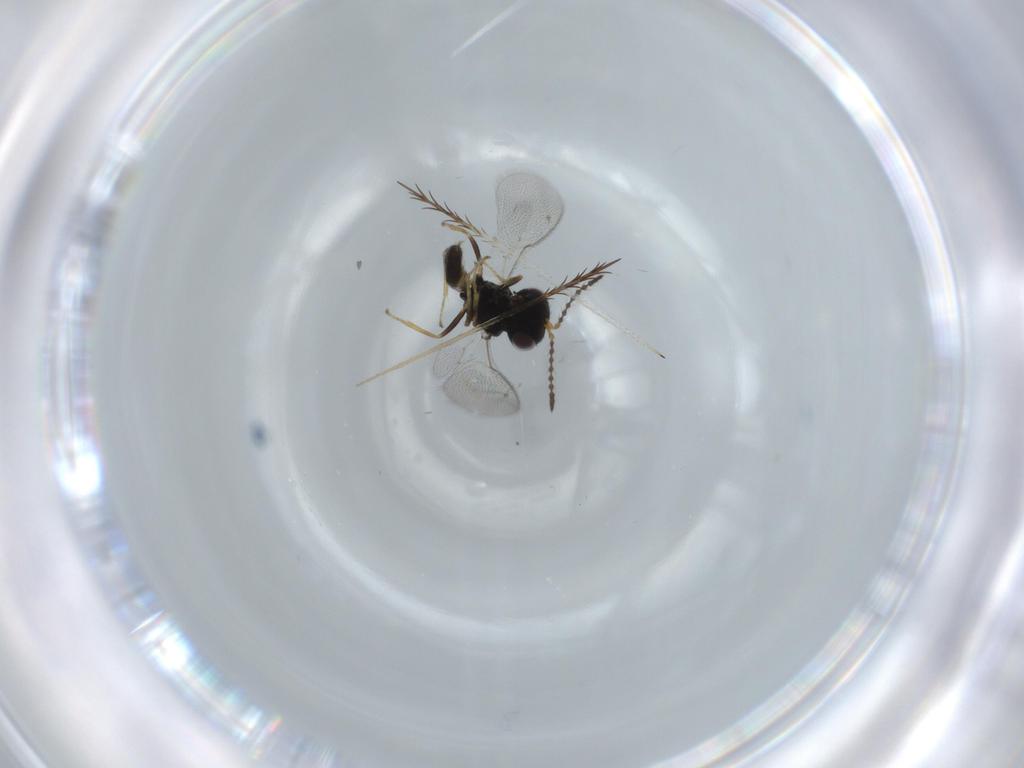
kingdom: Animalia
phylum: Arthropoda
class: Insecta
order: Hymenoptera
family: Pteromalidae
